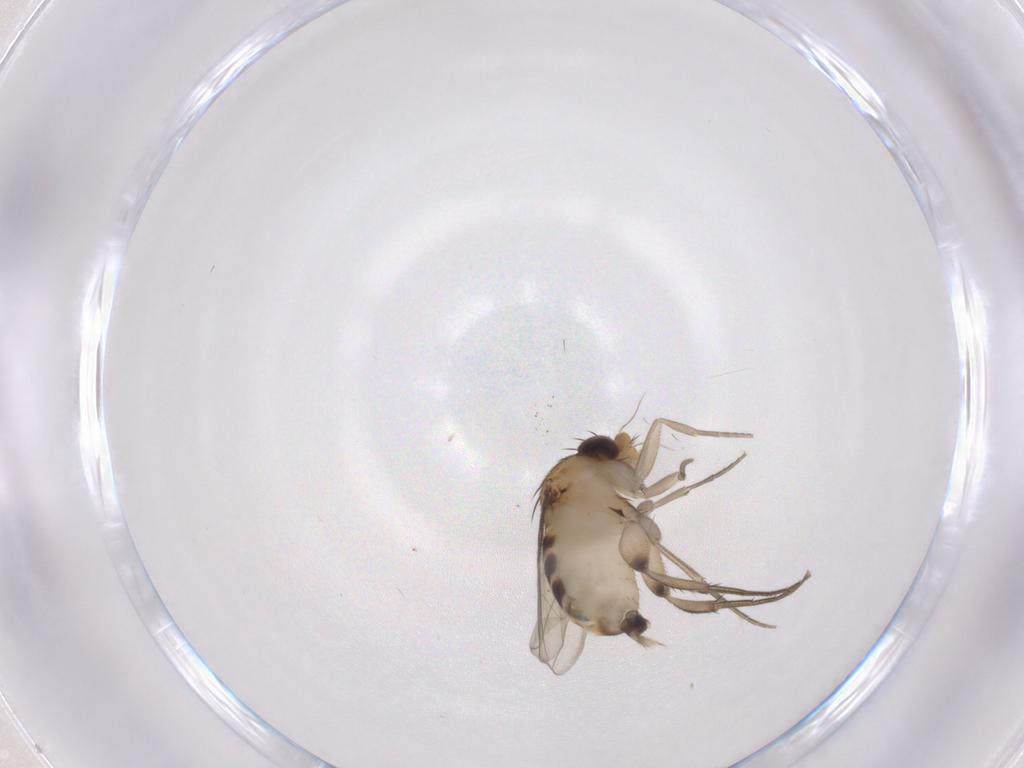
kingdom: Animalia
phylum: Arthropoda
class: Insecta
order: Diptera
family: Phoridae
